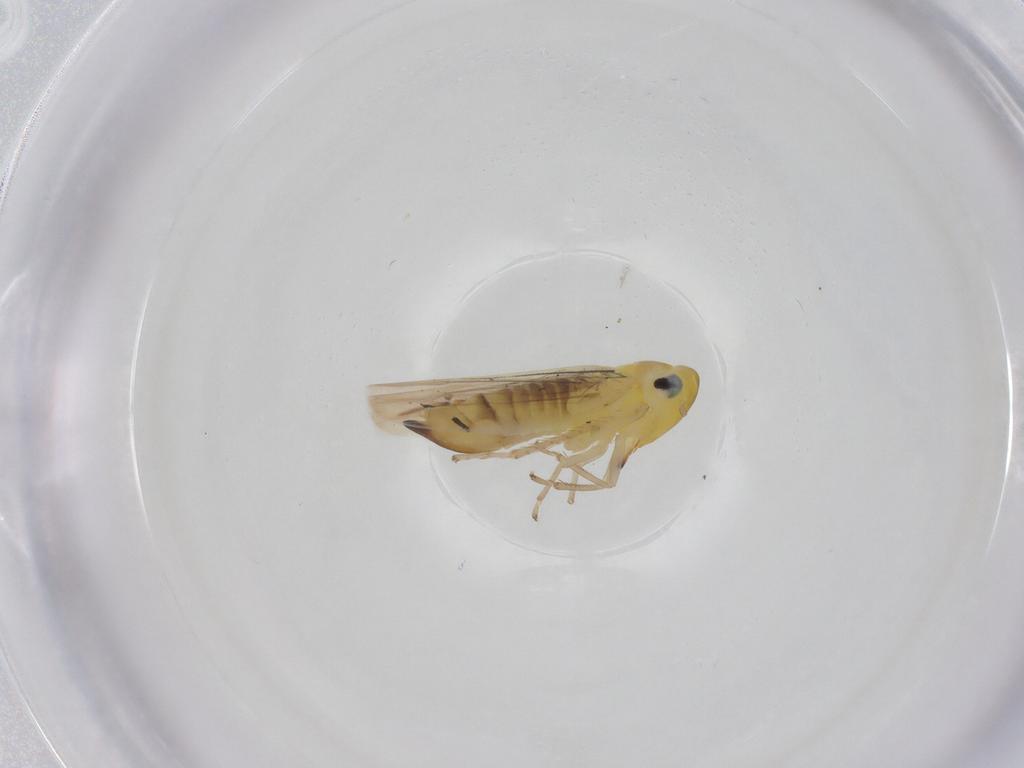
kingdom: Animalia
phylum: Arthropoda
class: Insecta
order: Hemiptera
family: Cicadellidae
